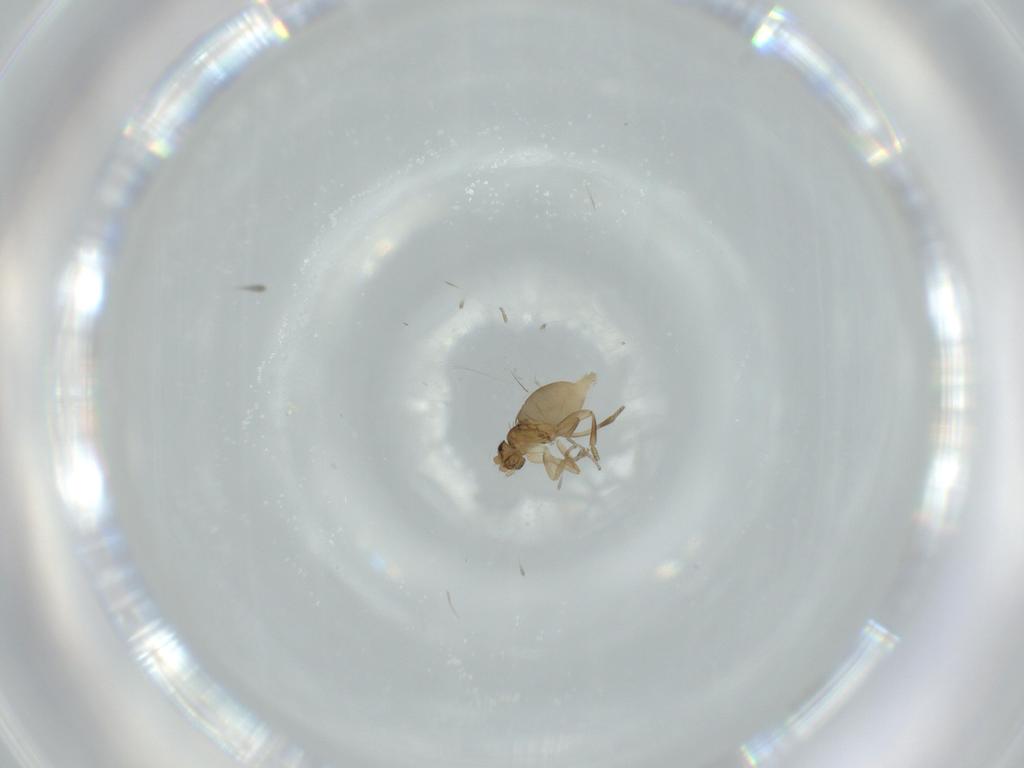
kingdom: Animalia
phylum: Arthropoda
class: Insecta
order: Diptera
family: Phoridae
